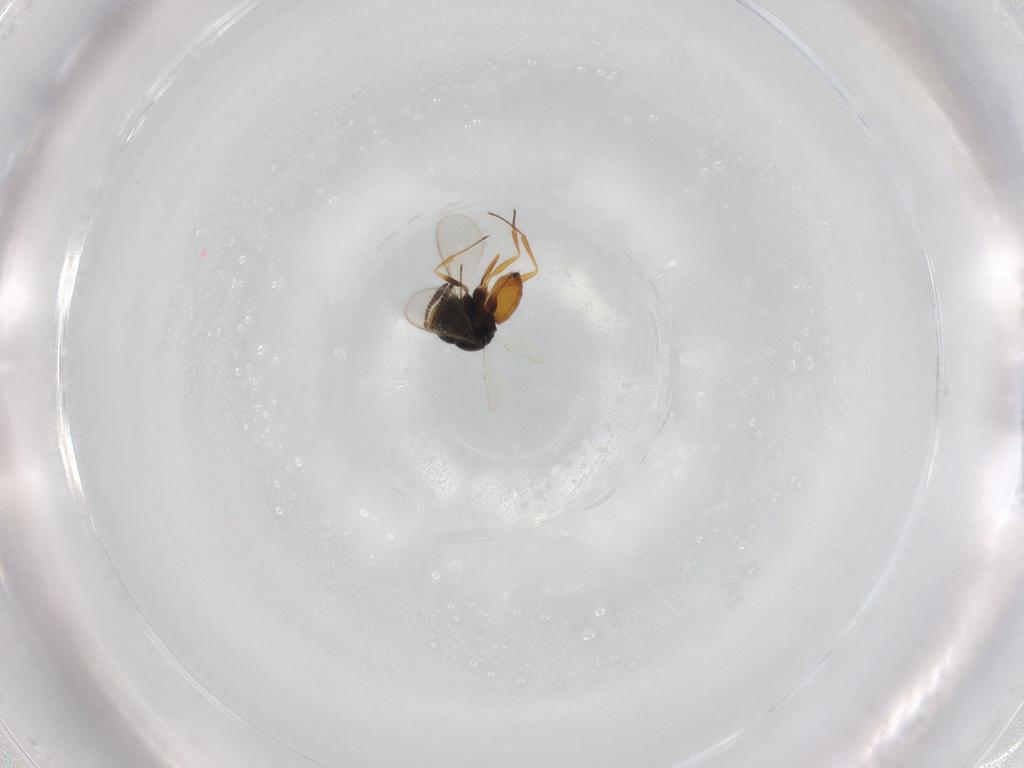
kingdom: Animalia
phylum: Arthropoda
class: Insecta
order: Hymenoptera
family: Scelionidae
